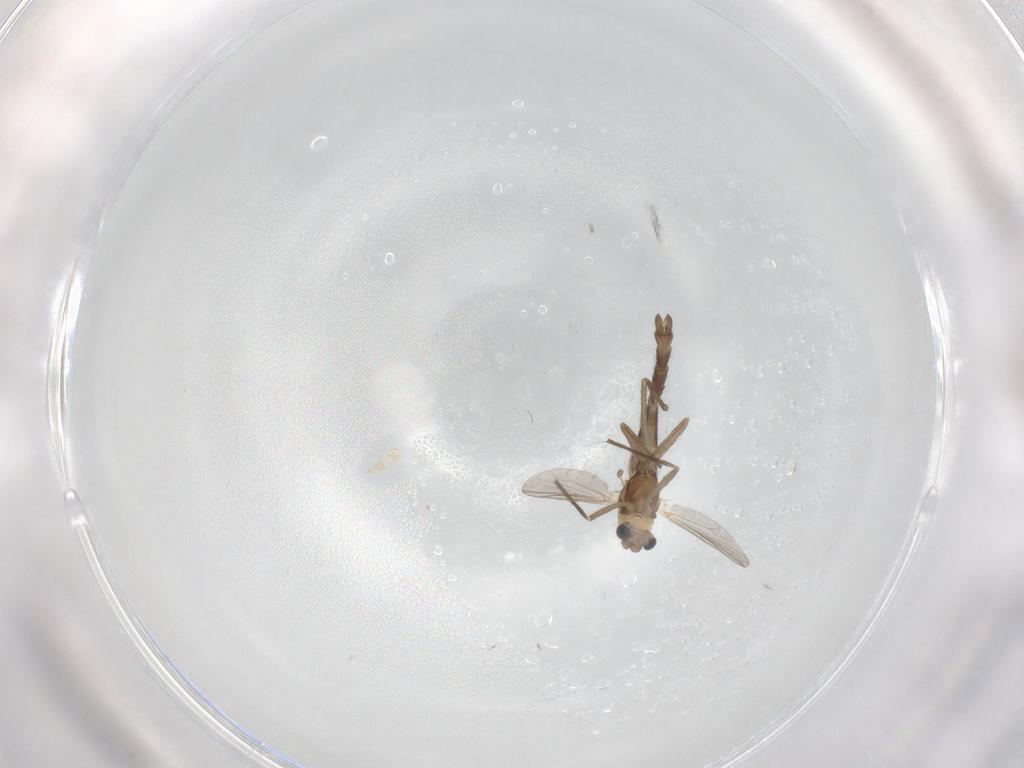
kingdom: Animalia
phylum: Arthropoda
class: Insecta
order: Diptera
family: Chironomidae
